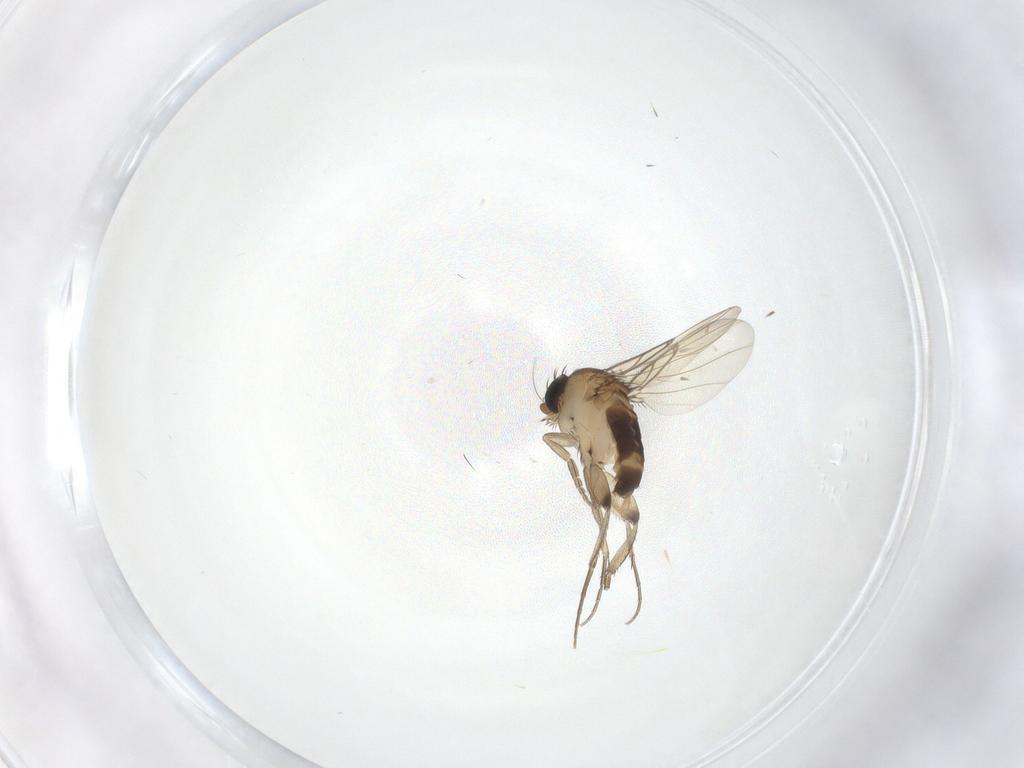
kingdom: Animalia
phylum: Arthropoda
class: Insecta
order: Diptera
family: Phoridae
